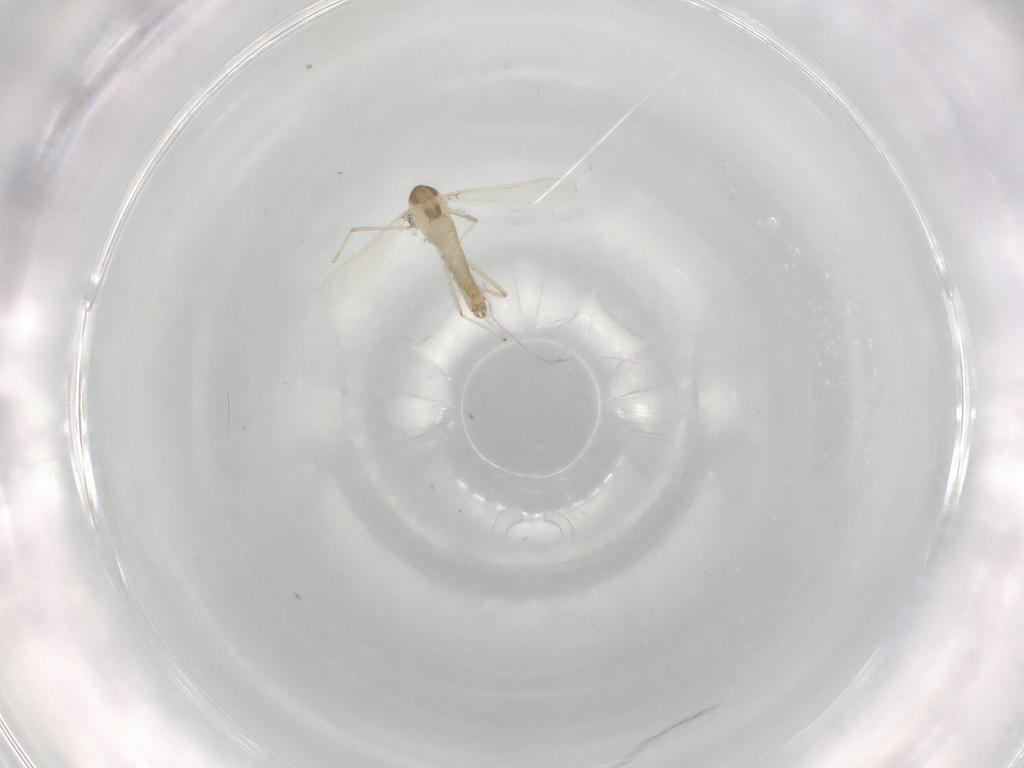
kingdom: Animalia
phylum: Arthropoda
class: Insecta
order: Diptera
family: Chironomidae
